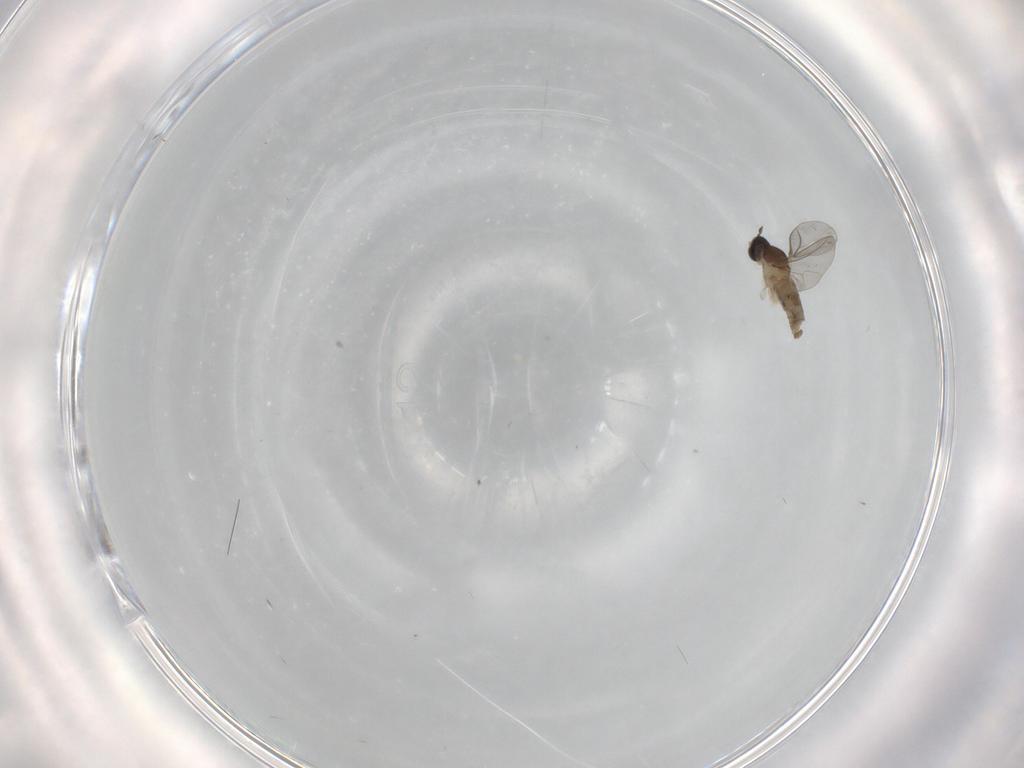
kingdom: Animalia
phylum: Arthropoda
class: Insecta
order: Diptera
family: Cecidomyiidae
